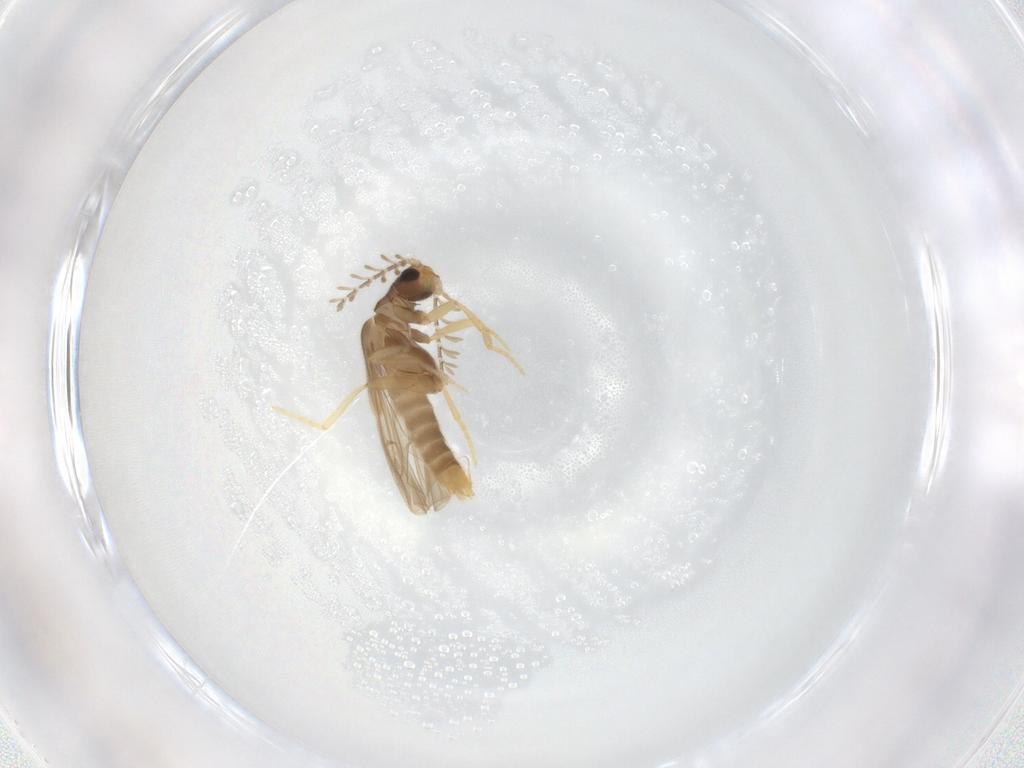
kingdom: Animalia
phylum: Arthropoda
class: Insecta
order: Coleoptera
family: Phengodidae
